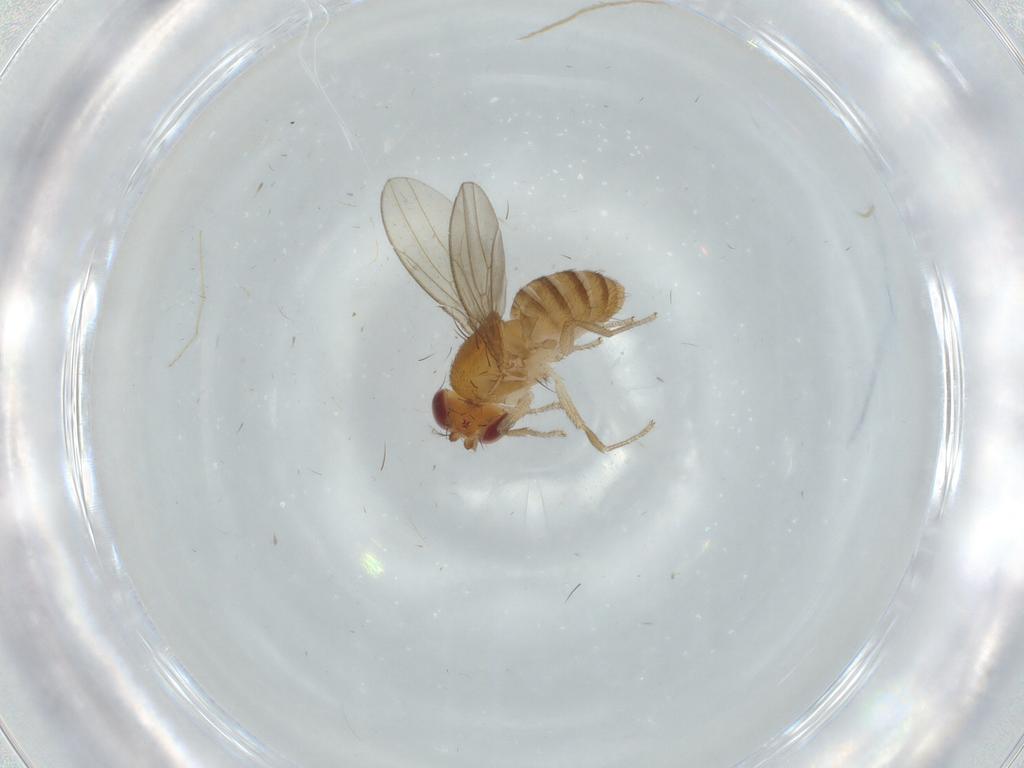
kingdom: Animalia
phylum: Arthropoda
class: Insecta
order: Diptera
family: Drosophilidae
